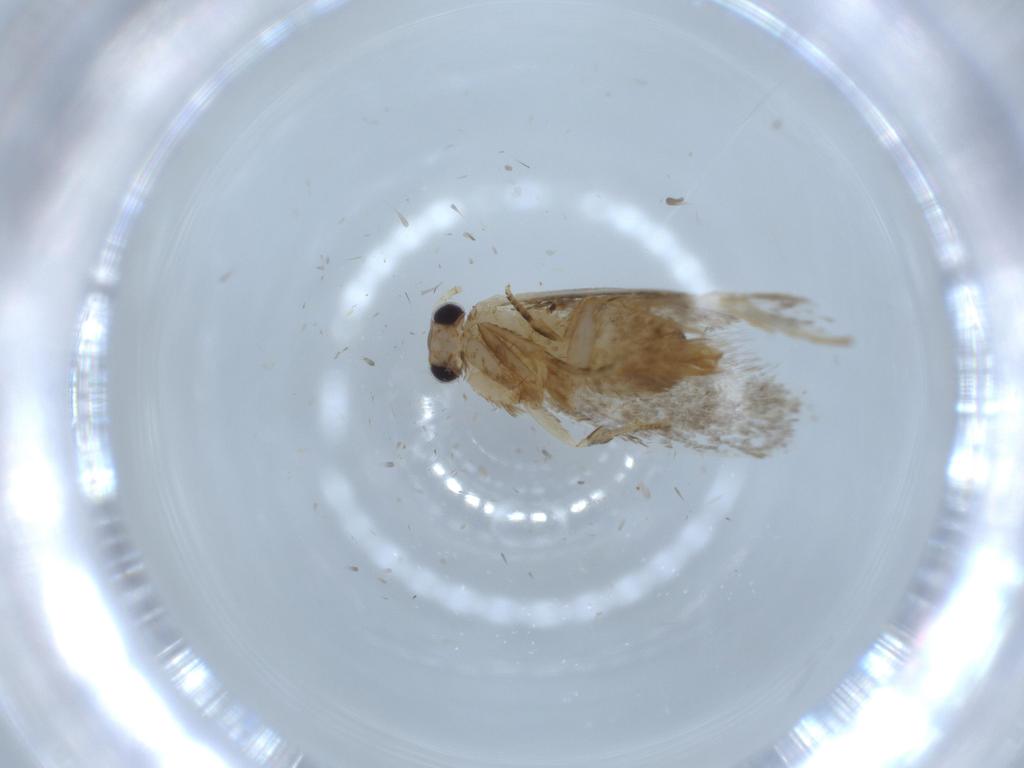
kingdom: Animalia
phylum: Arthropoda
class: Insecta
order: Lepidoptera
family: Tineidae
